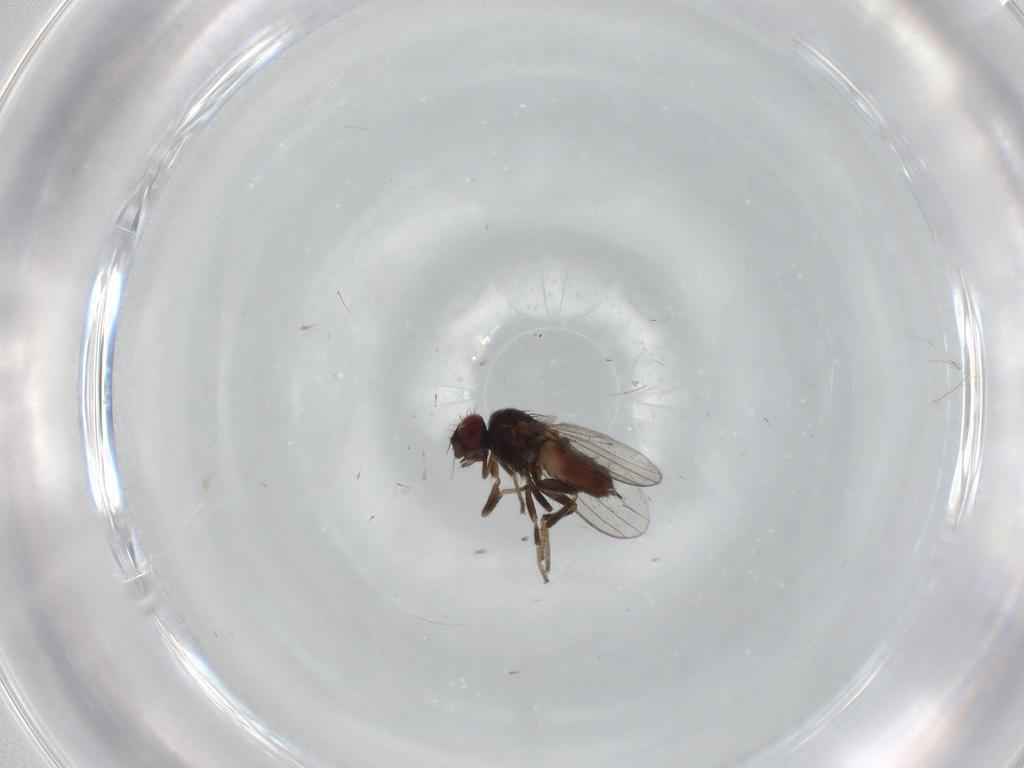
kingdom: Animalia
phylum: Arthropoda
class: Insecta
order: Diptera
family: Milichiidae
